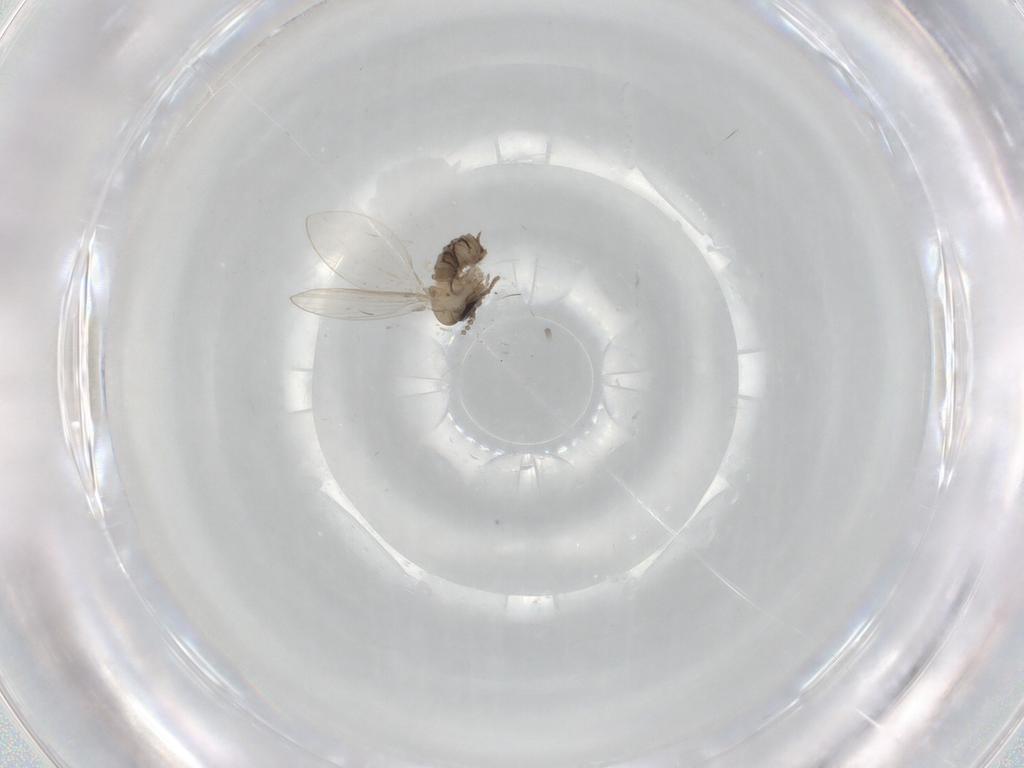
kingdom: Animalia
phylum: Arthropoda
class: Insecta
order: Diptera
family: Psychodidae
